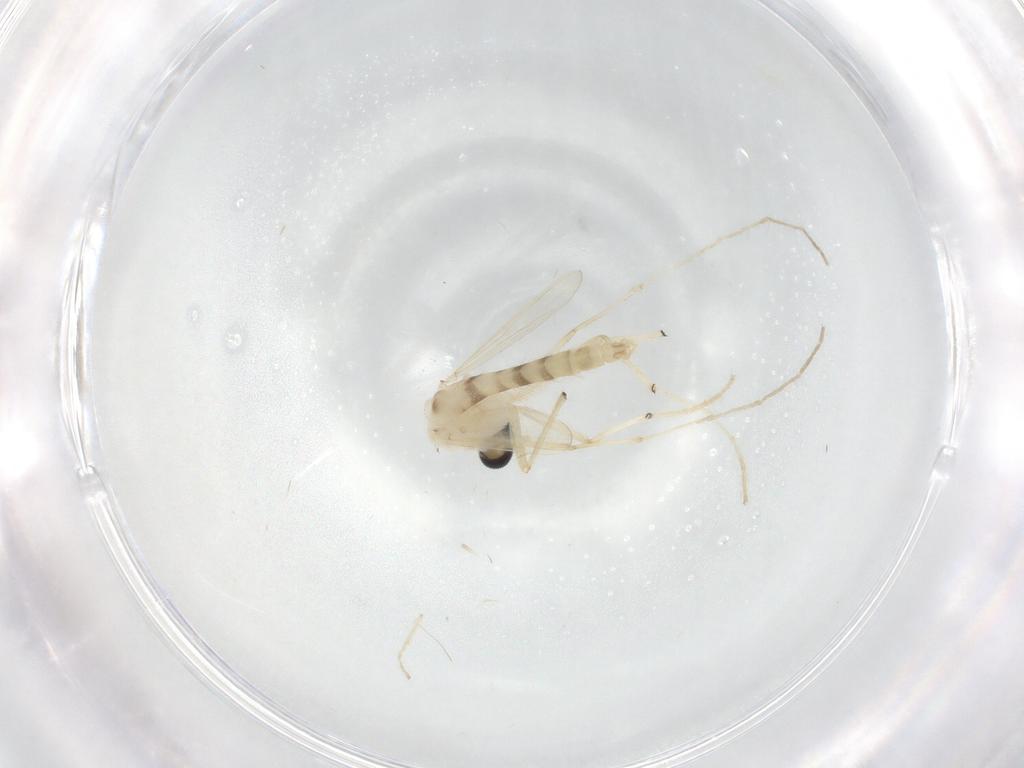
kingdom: Animalia
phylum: Arthropoda
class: Insecta
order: Diptera
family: Chironomidae
